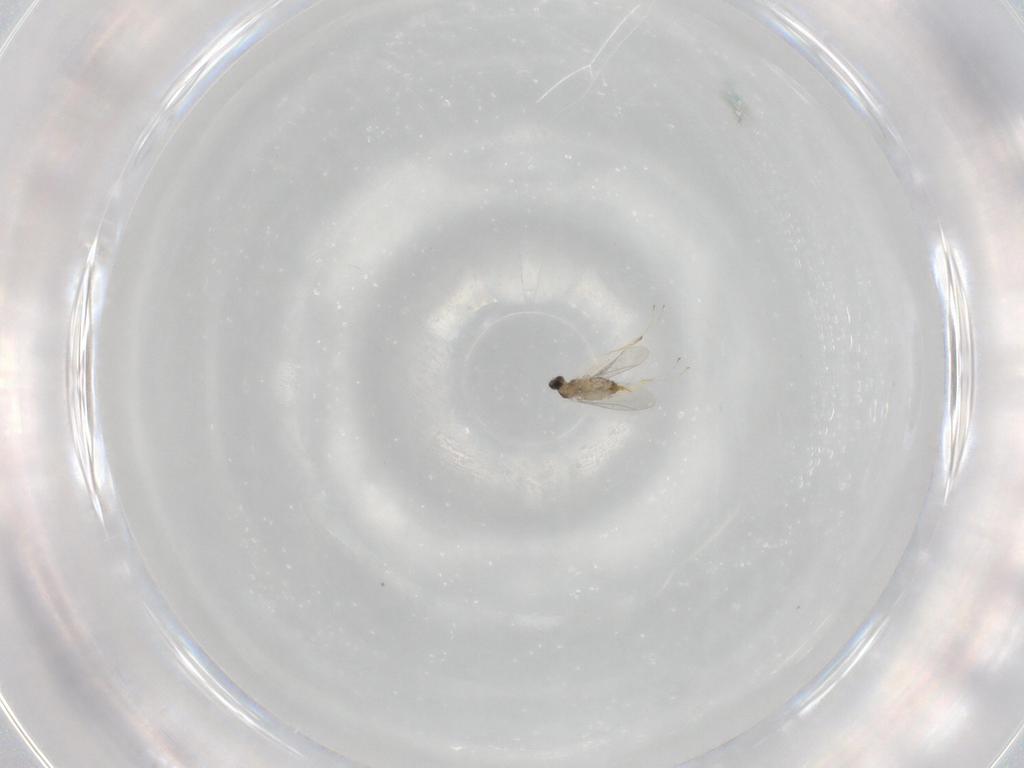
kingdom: Animalia
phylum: Arthropoda
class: Insecta
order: Diptera
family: Cecidomyiidae
